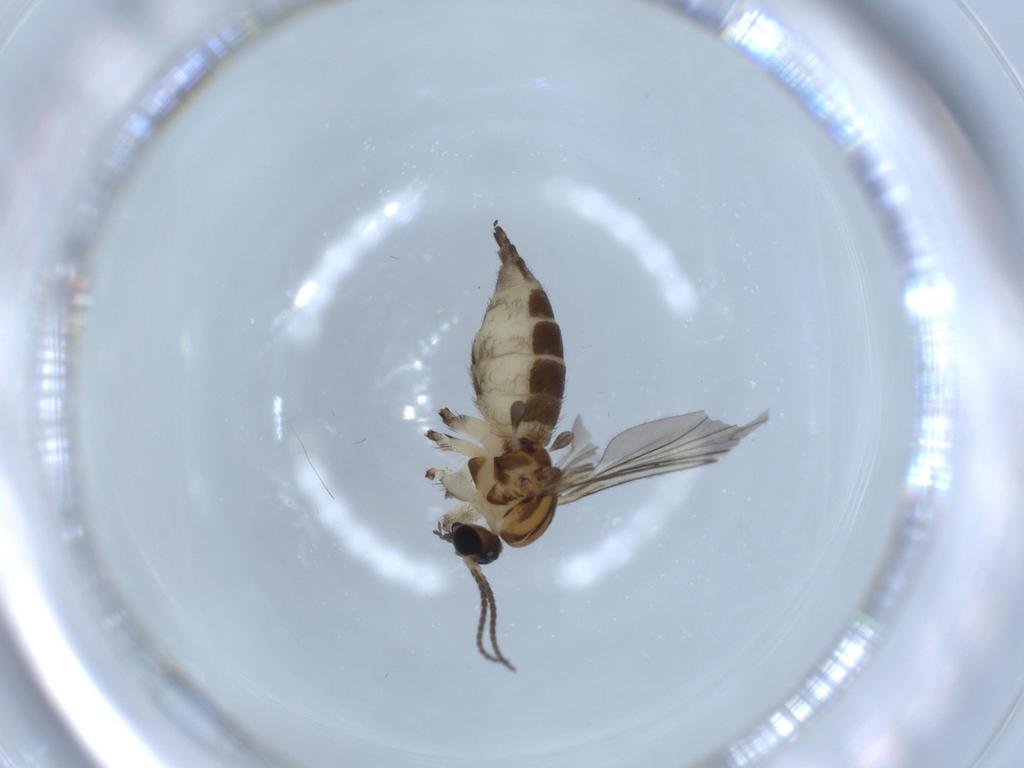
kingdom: Animalia
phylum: Arthropoda
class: Insecta
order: Diptera
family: Sciaridae
